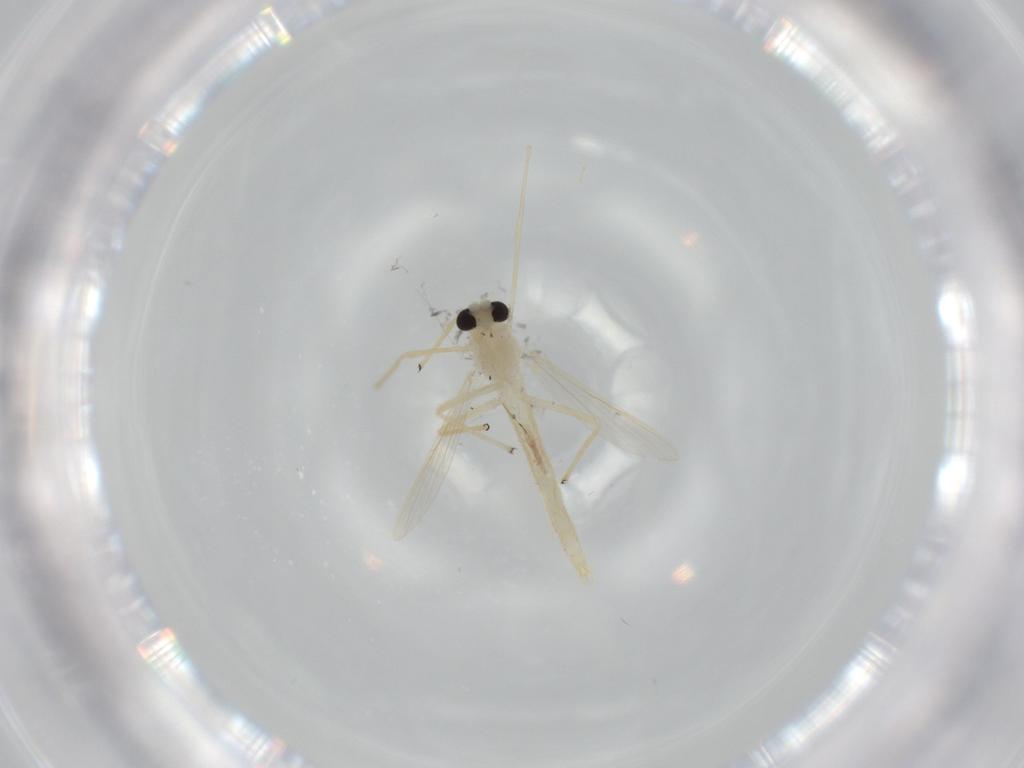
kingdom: Animalia
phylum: Arthropoda
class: Insecta
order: Diptera
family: Chironomidae
